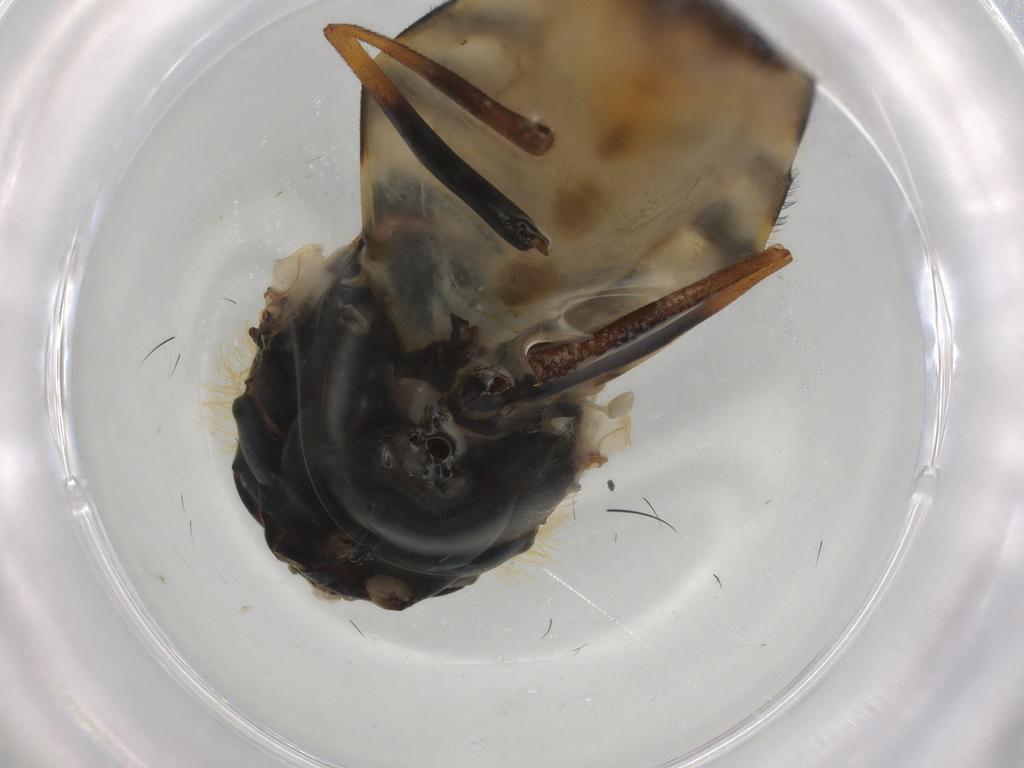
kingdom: Animalia
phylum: Arthropoda
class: Insecta
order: Diptera
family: Syrphidae
